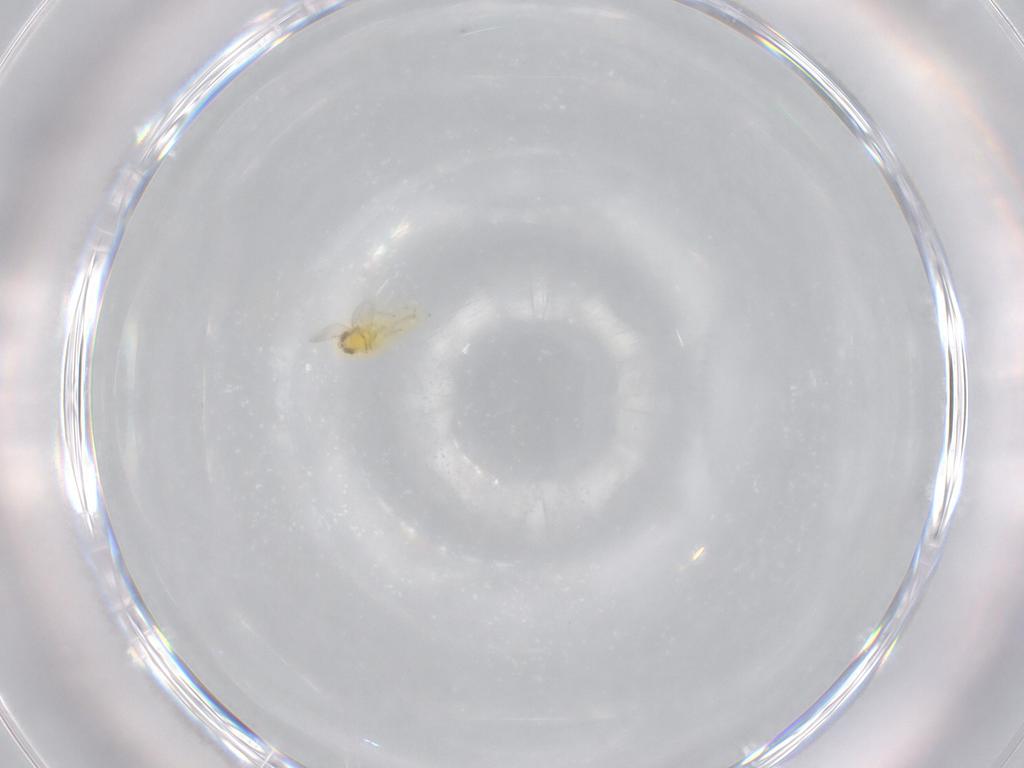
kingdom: Animalia
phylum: Arthropoda
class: Insecta
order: Hymenoptera
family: Aphelinidae
